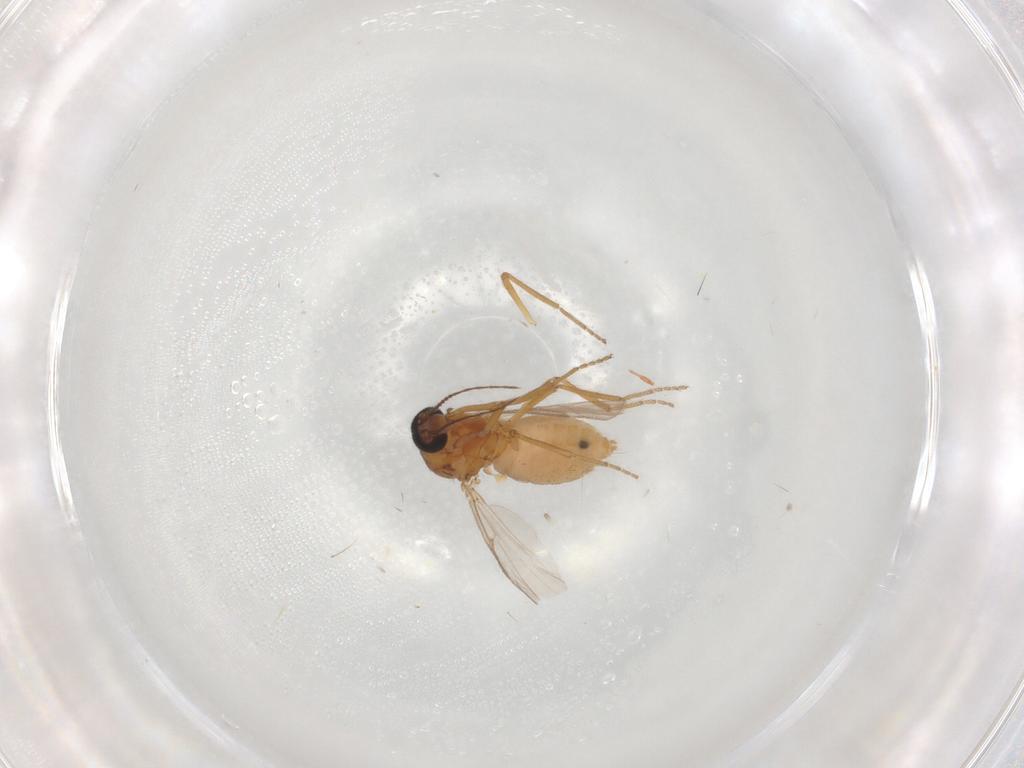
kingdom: Animalia
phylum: Arthropoda
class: Insecta
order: Diptera
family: Ceratopogonidae
